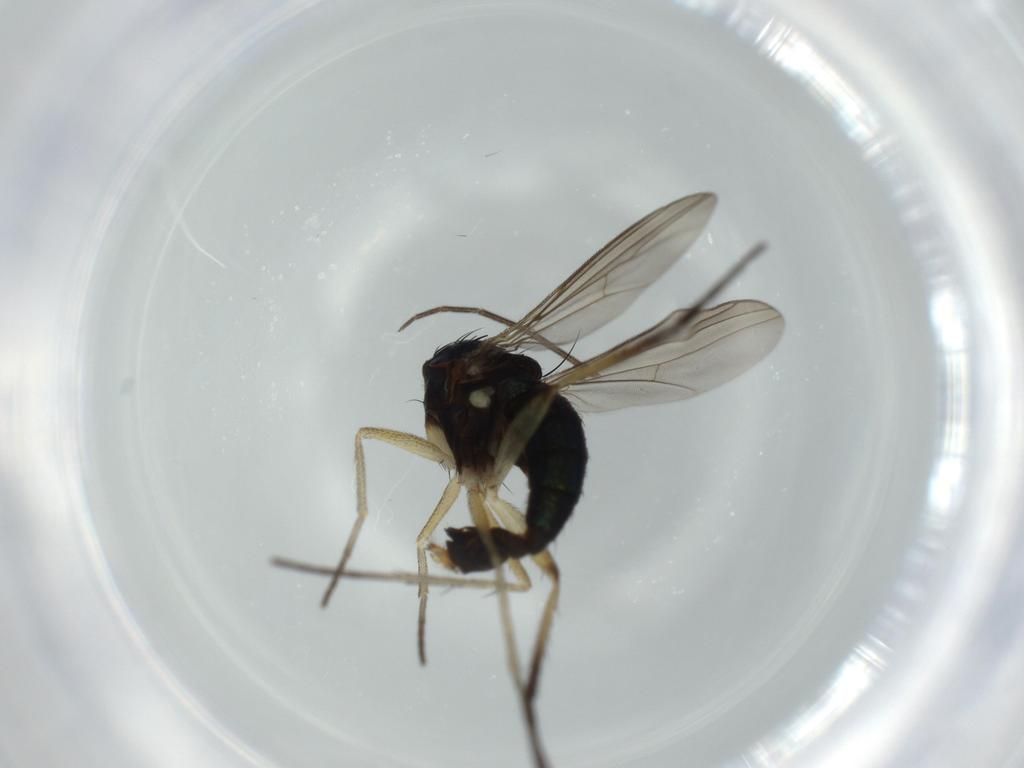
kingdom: Animalia
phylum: Arthropoda
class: Insecta
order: Diptera
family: Dolichopodidae
